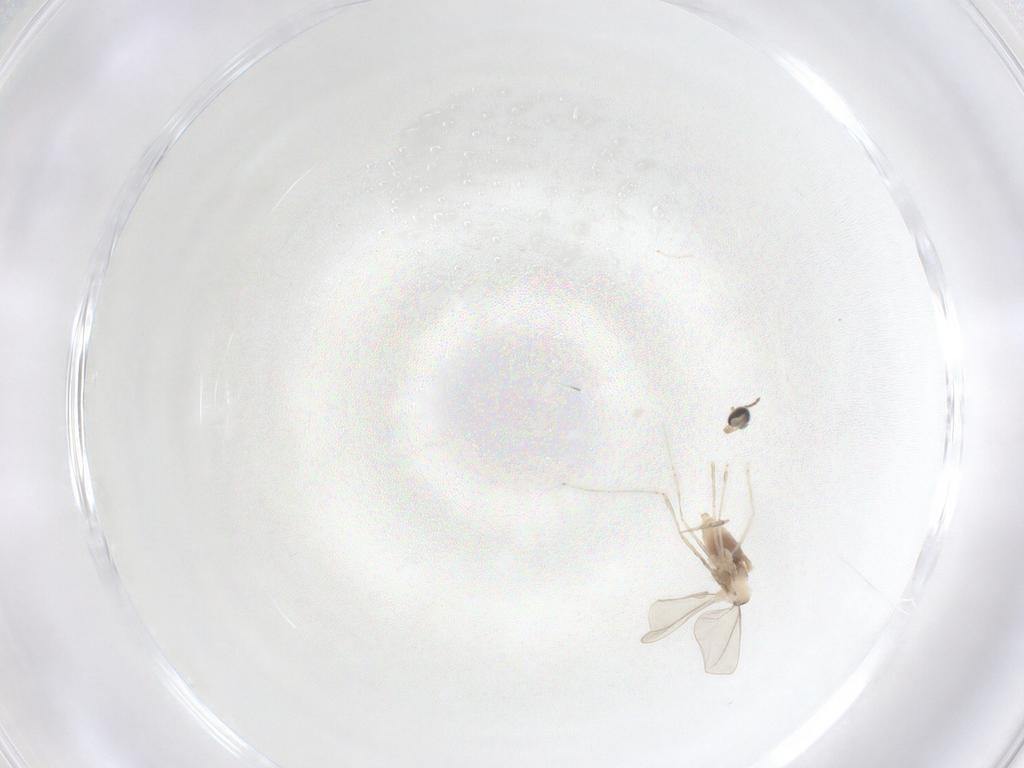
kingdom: Animalia
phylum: Arthropoda
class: Insecta
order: Diptera
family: Cecidomyiidae
